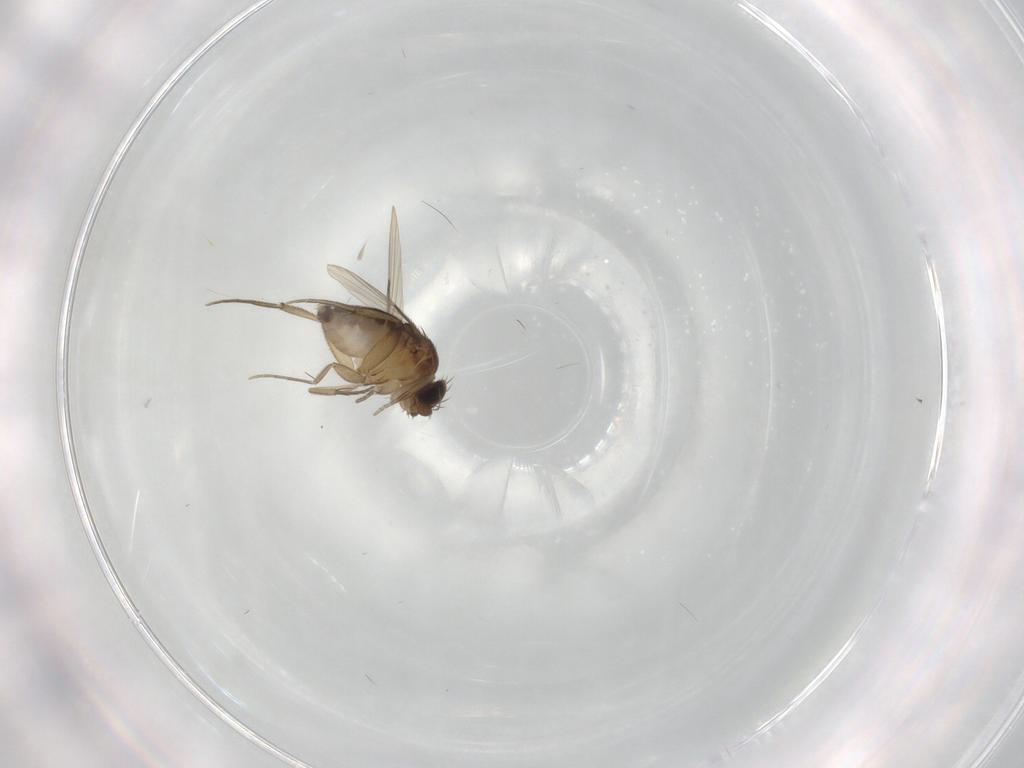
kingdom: Animalia
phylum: Arthropoda
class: Insecta
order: Diptera
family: Phoridae
